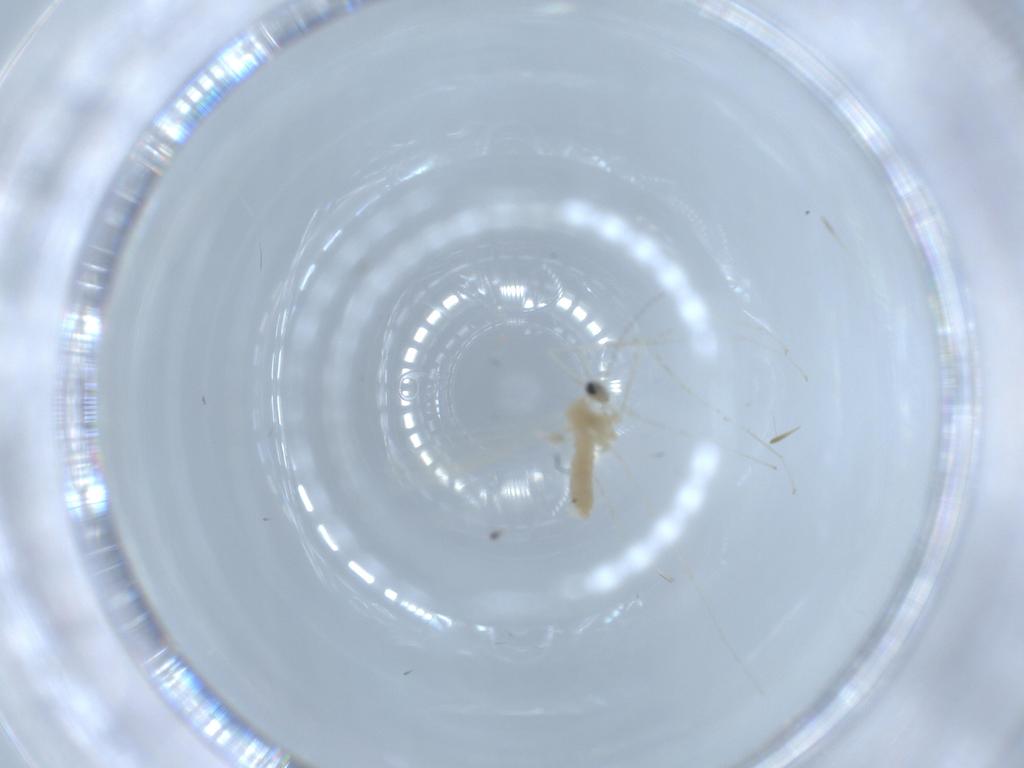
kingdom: Animalia
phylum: Arthropoda
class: Insecta
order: Diptera
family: Cecidomyiidae
